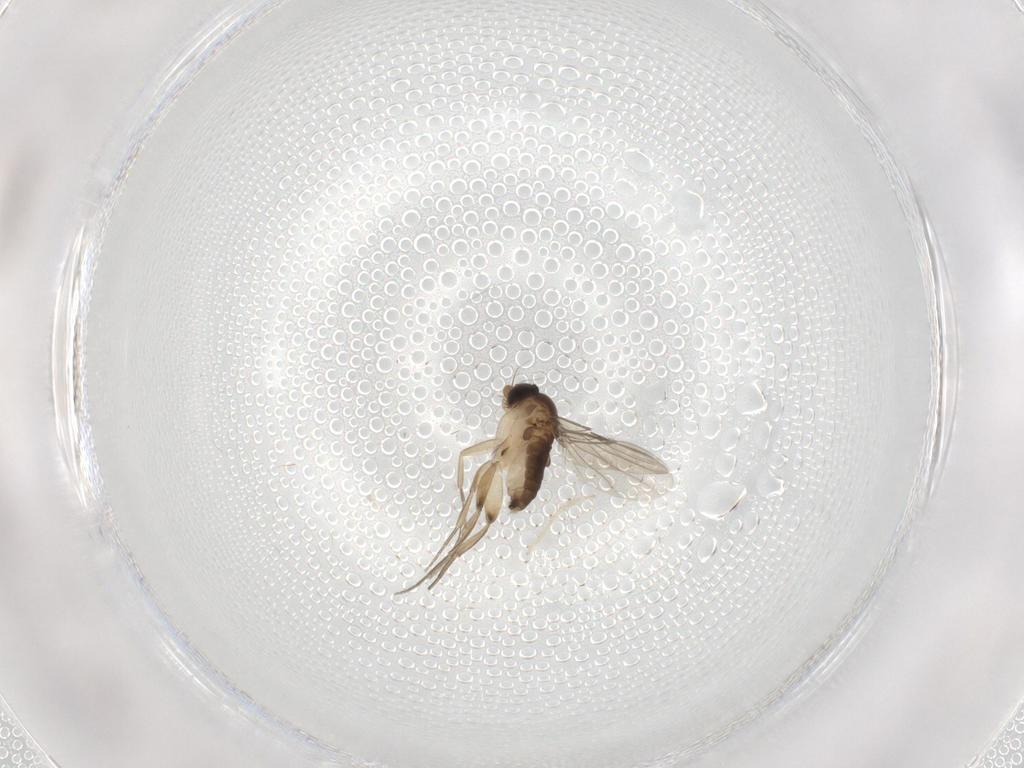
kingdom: Animalia
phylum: Arthropoda
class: Insecta
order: Diptera
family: Phoridae
